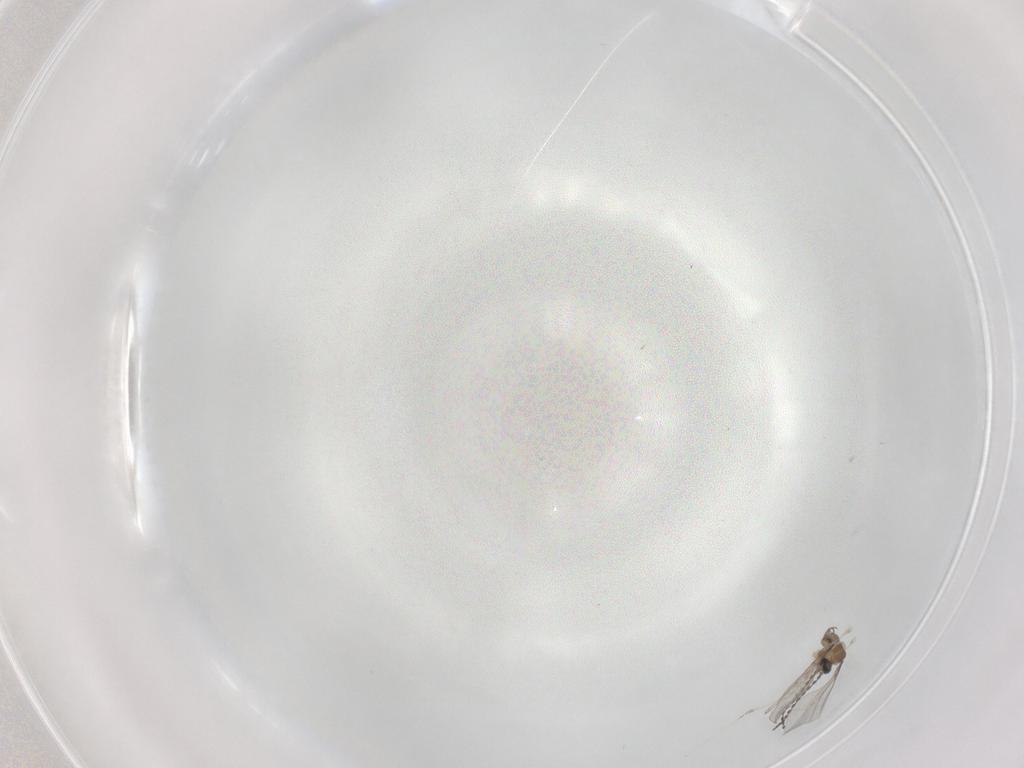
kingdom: Animalia
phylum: Arthropoda
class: Insecta
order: Diptera
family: Cecidomyiidae
